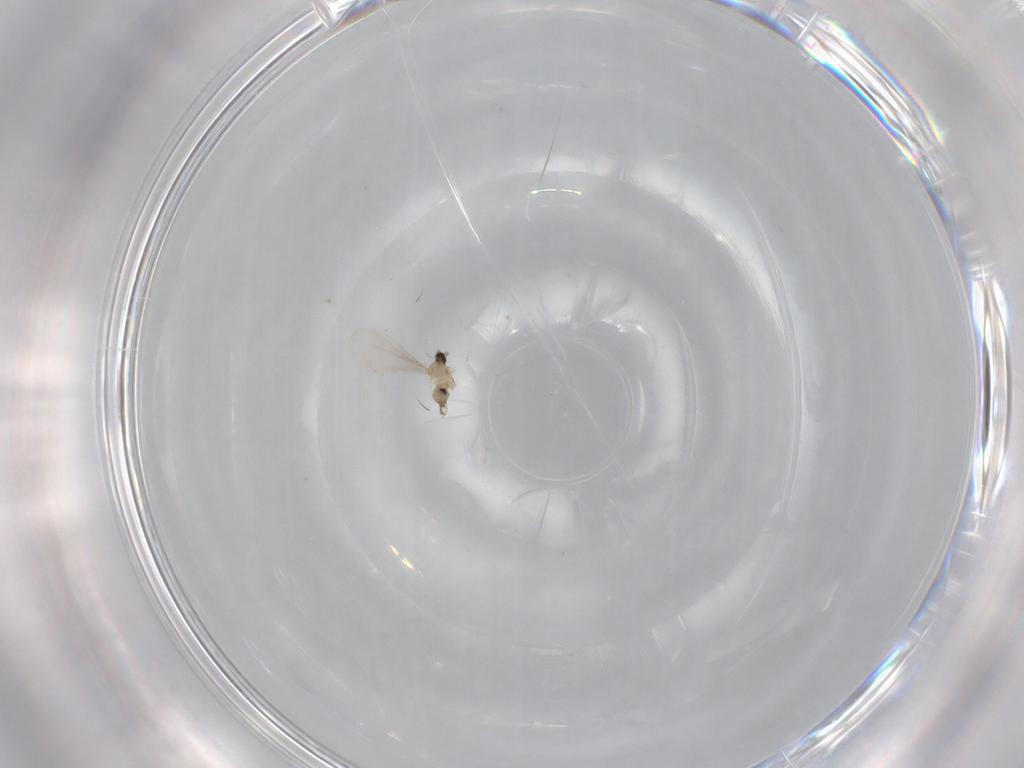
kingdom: Animalia
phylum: Arthropoda
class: Insecta
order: Diptera
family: Cecidomyiidae
